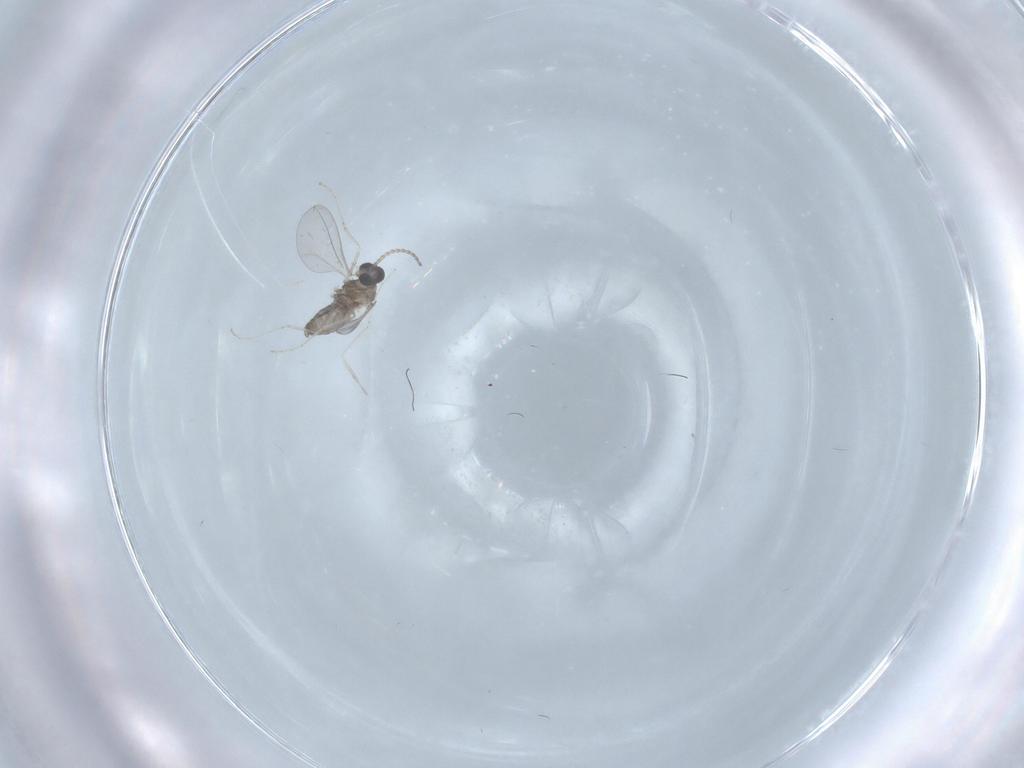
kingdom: Animalia
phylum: Arthropoda
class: Insecta
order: Diptera
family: Cecidomyiidae
